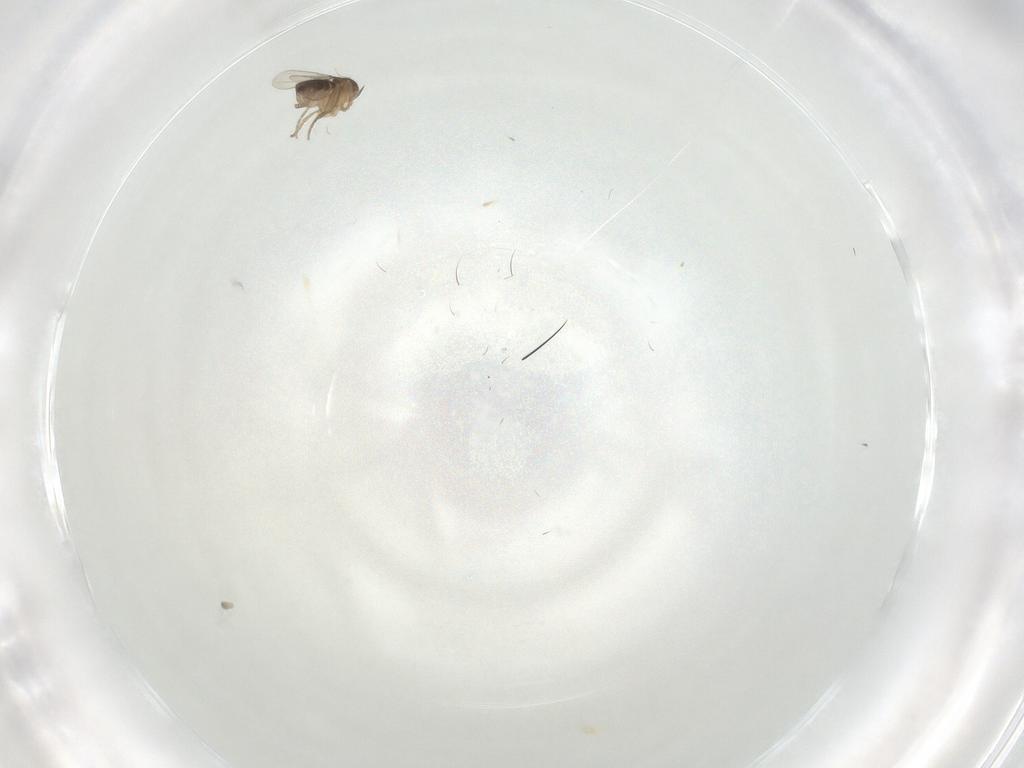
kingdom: Animalia
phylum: Arthropoda
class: Insecta
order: Diptera
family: Phoridae
